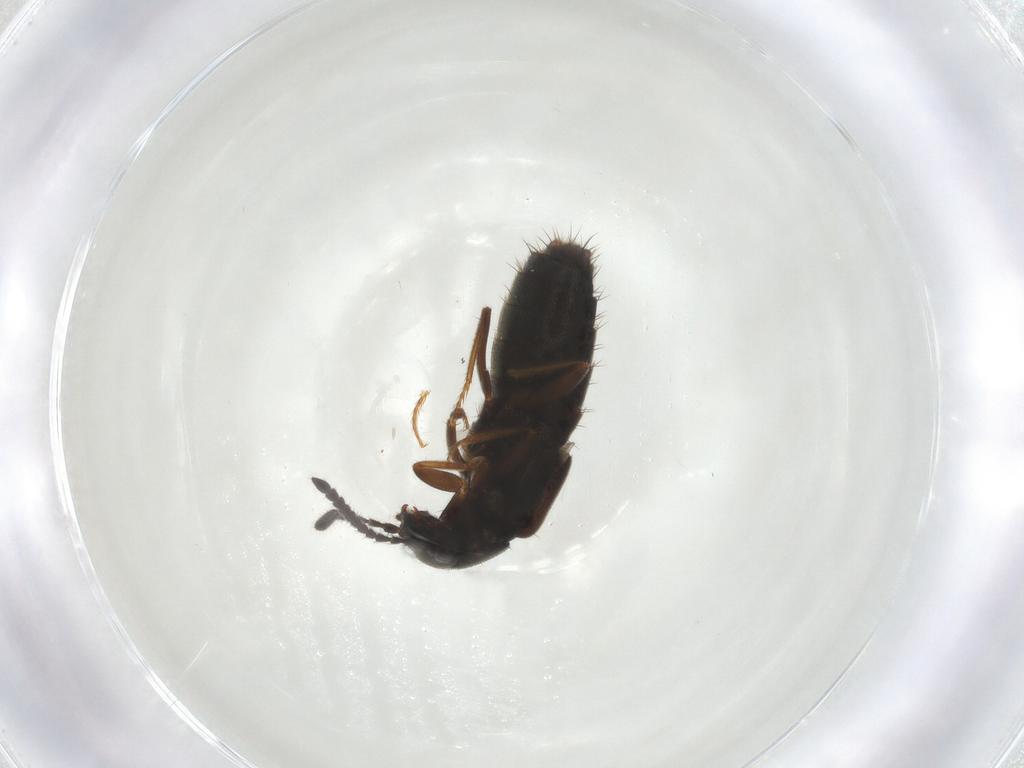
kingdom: Animalia
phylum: Arthropoda
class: Insecta
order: Coleoptera
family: Staphylinidae
